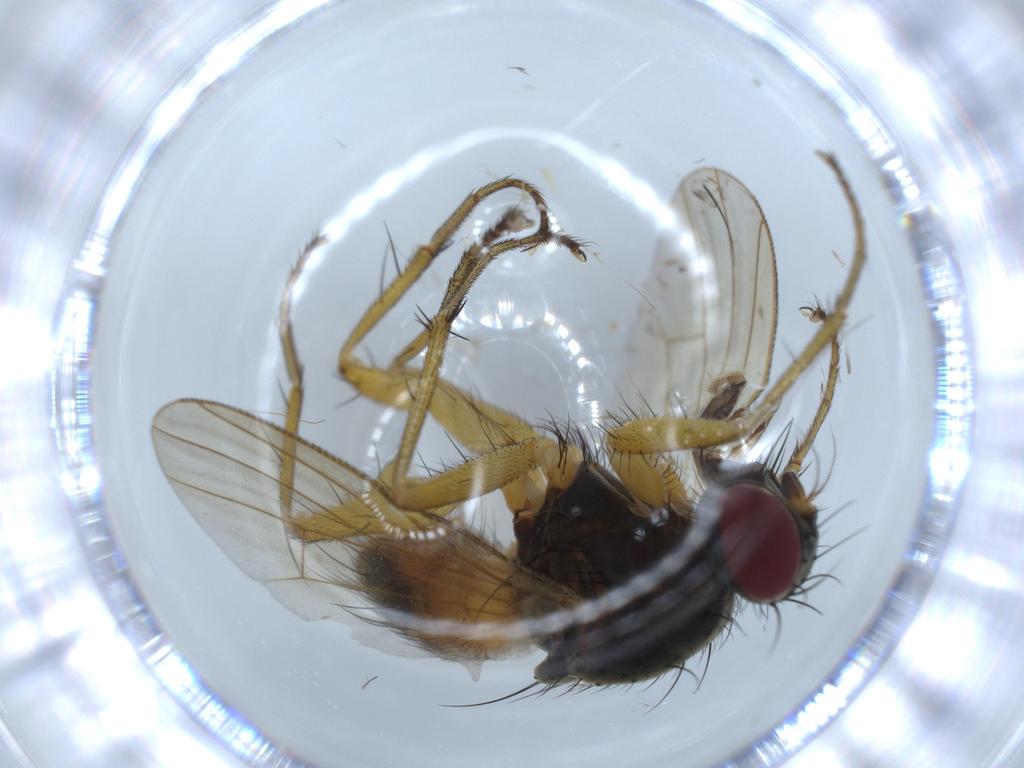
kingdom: Animalia
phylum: Arthropoda
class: Insecta
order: Diptera
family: Muscidae
